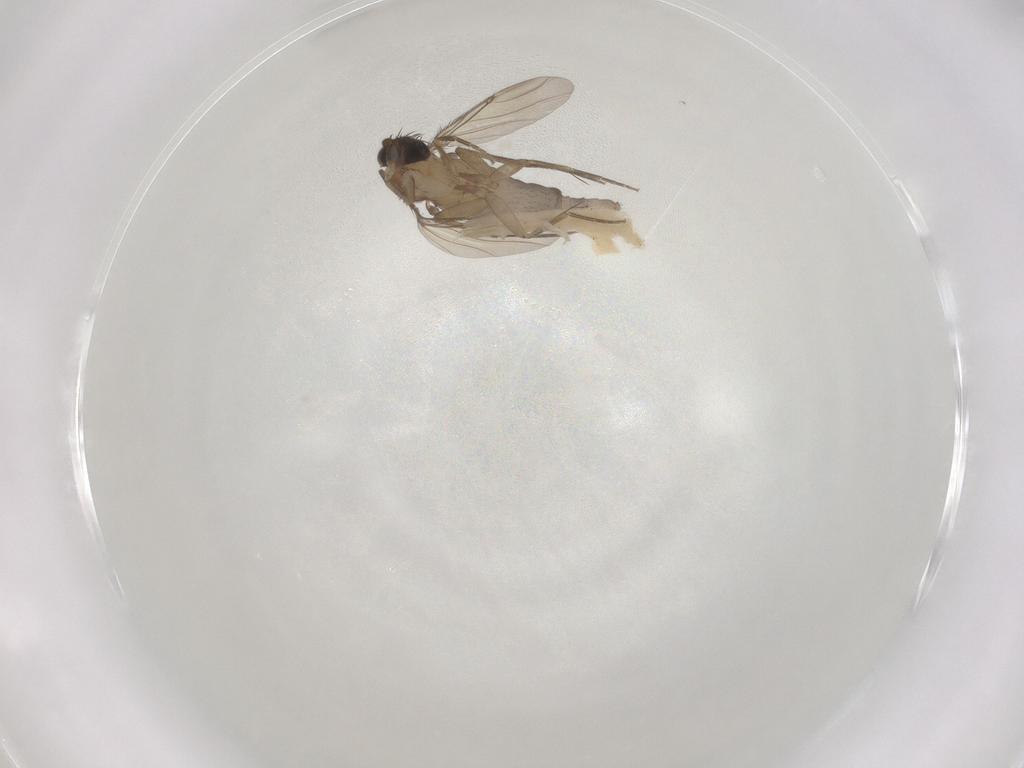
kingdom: Animalia
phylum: Arthropoda
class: Insecta
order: Diptera
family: Phoridae
